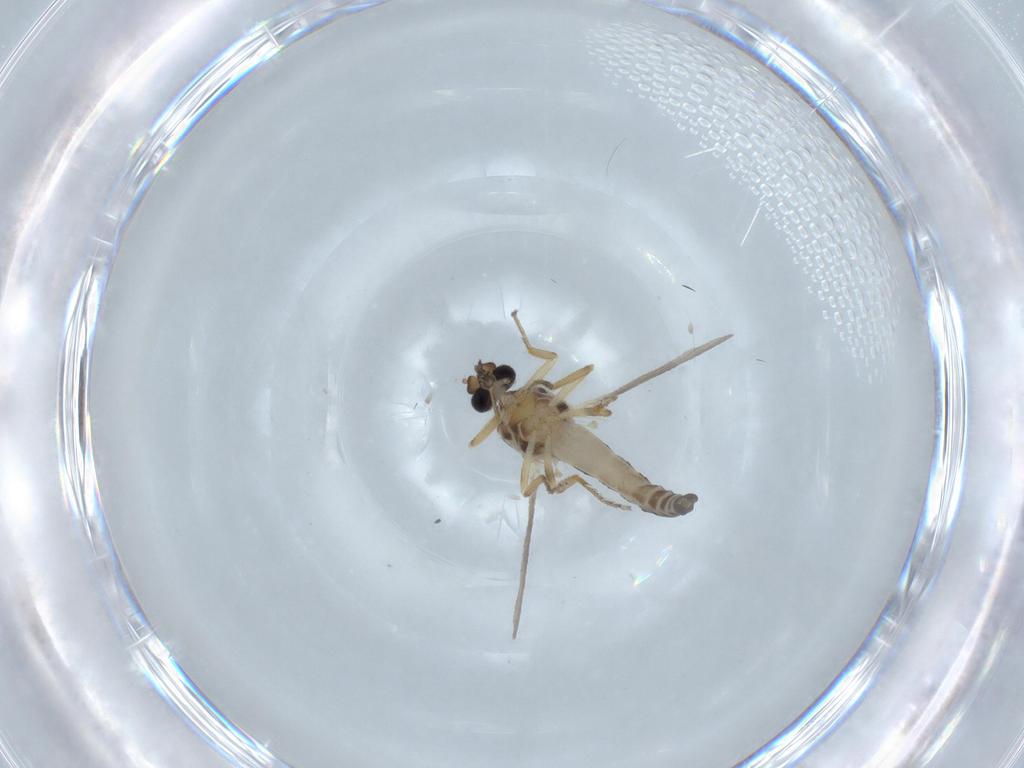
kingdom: Animalia
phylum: Arthropoda
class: Insecta
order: Diptera
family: Ceratopogonidae
